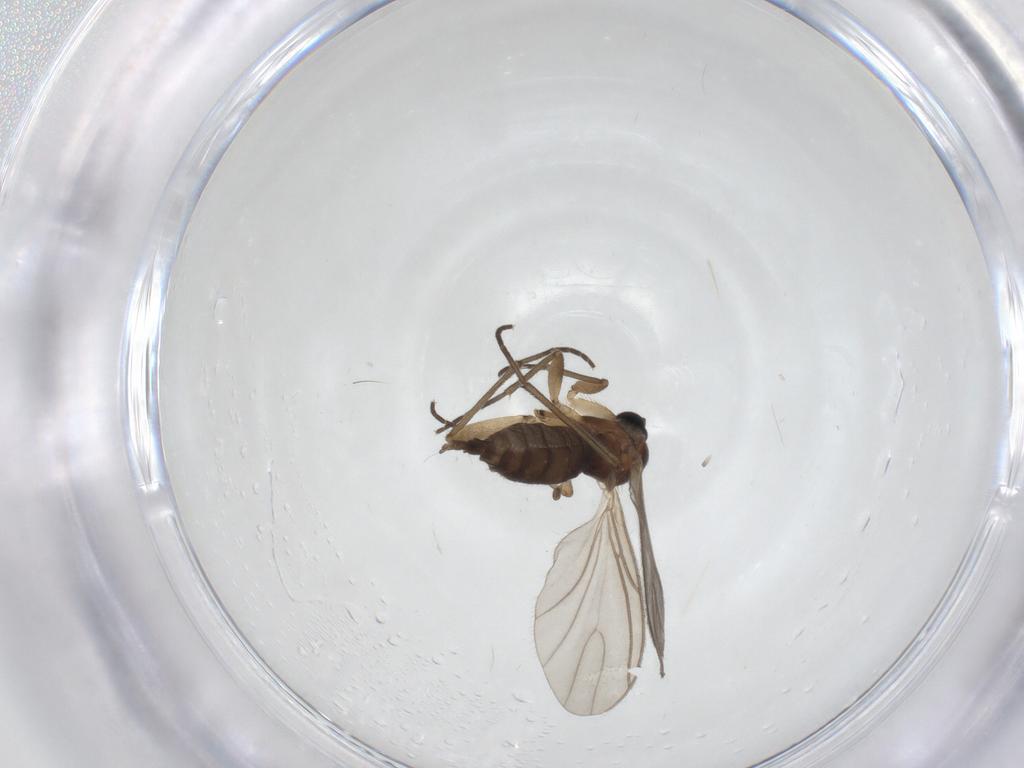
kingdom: Animalia
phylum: Arthropoda
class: Insecta
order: Diptera
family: Sciaridae
